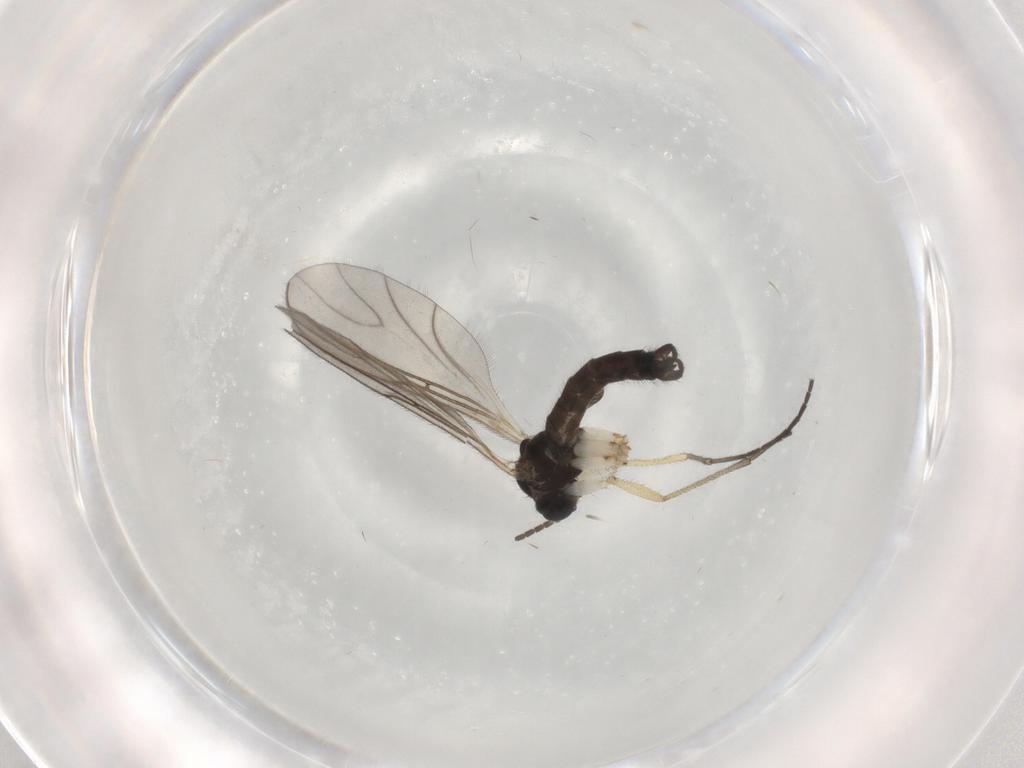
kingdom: Animalia
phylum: Arthropoda
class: Insecta
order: Diptera
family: Sciaridae
